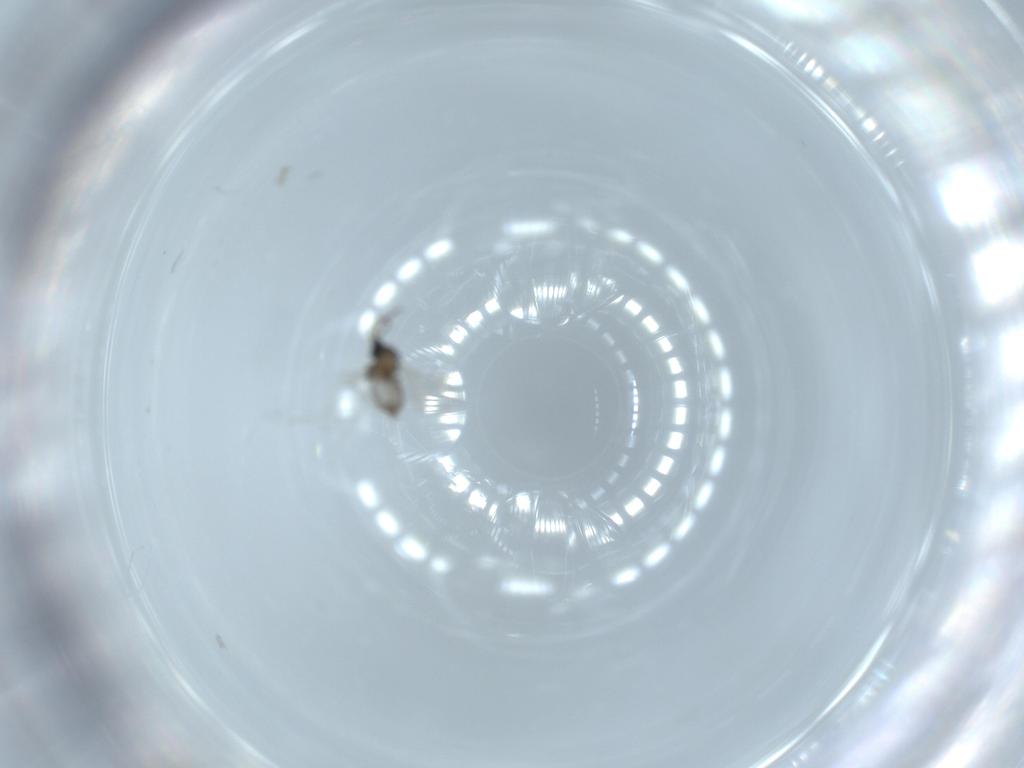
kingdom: Animalia
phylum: Arthropoda
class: Insecta
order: Diptera
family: Cecidomyiidae
